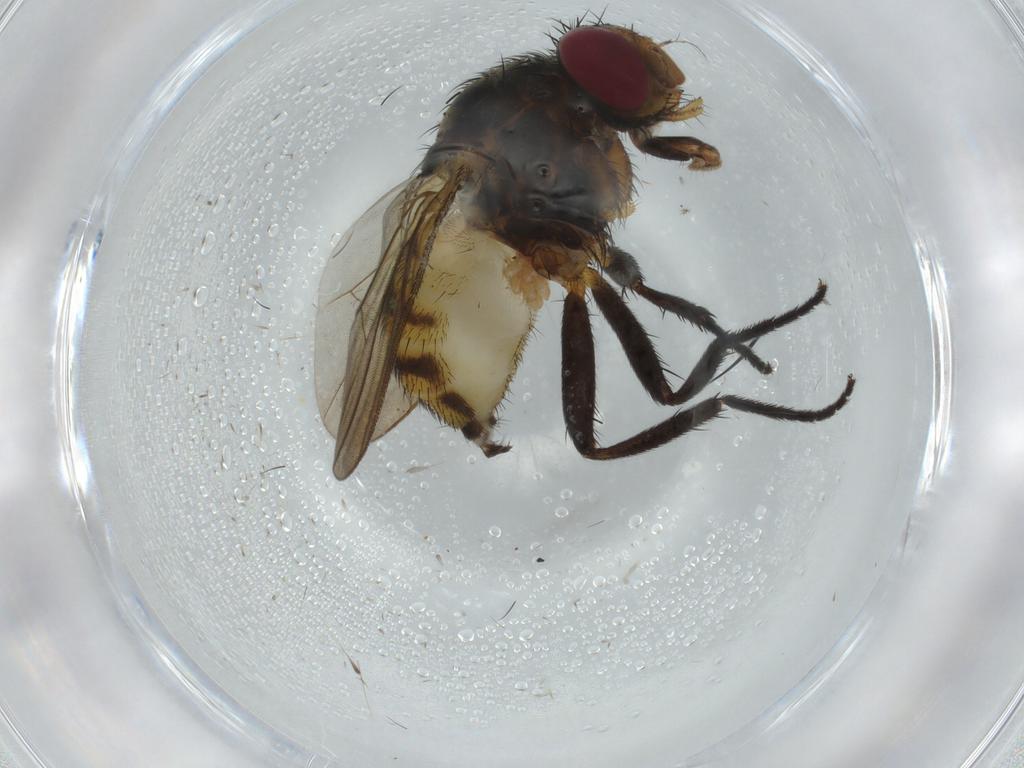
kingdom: Animalia
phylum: Arthropoda
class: Insecta
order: Diptera
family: Anthomyiidae
